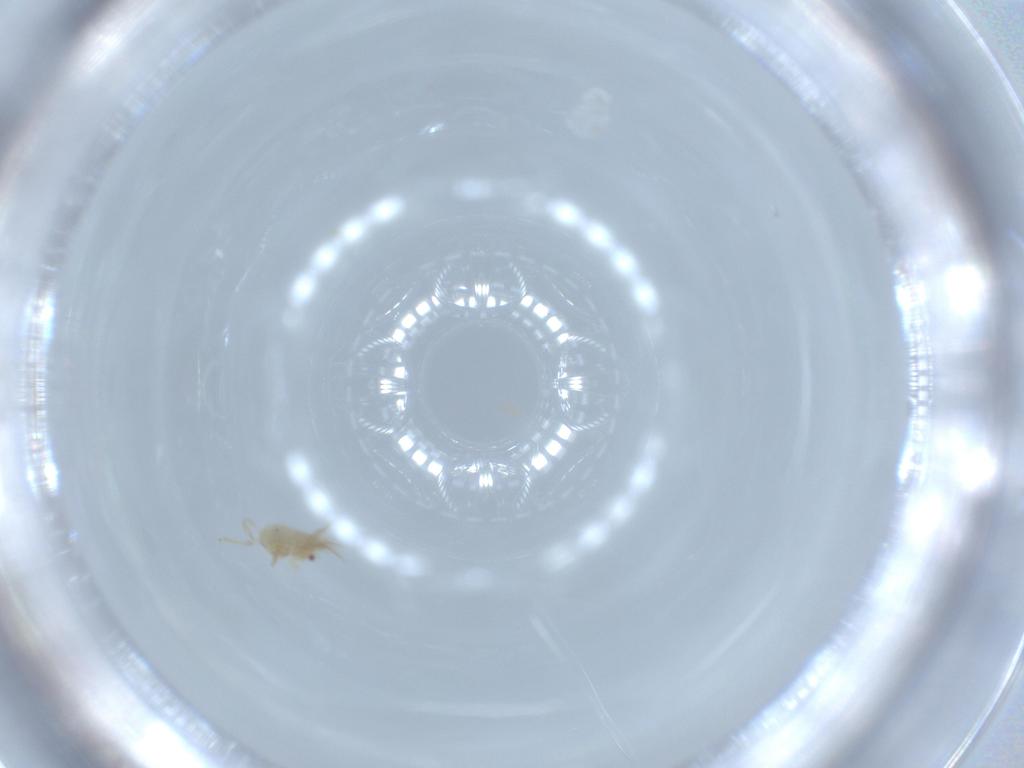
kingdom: Animalia
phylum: Arthropoda
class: Insecta
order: Diptera
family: Sciaridae
